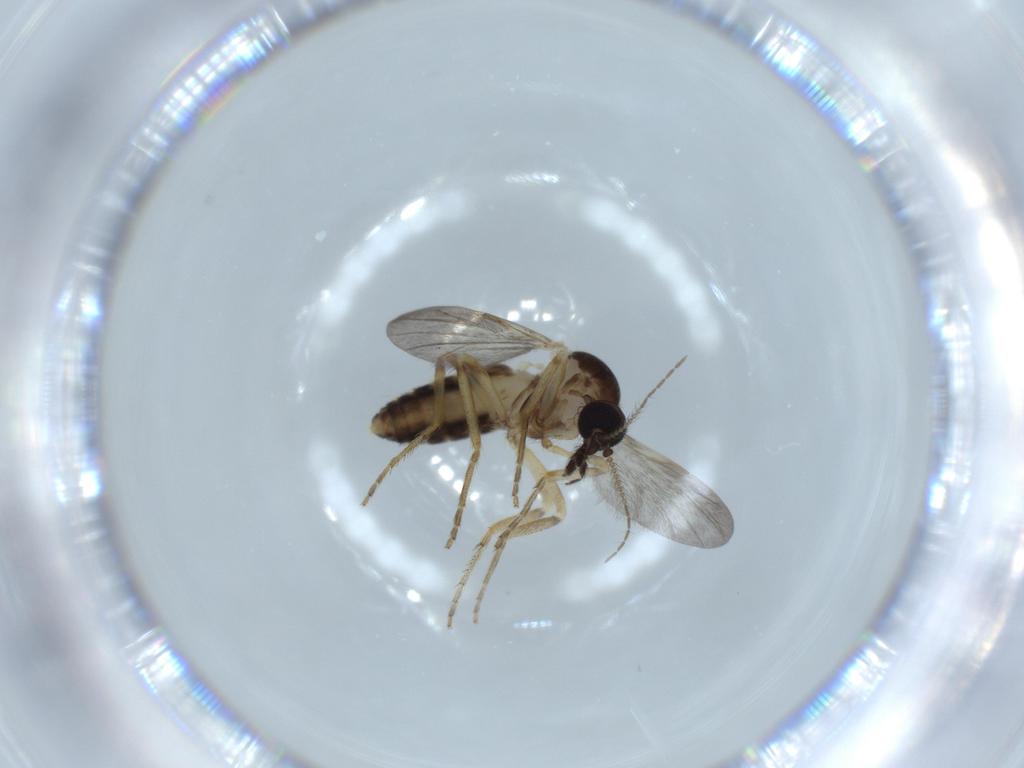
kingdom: Animalia
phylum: Arthropoda
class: Insecta
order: Diptera
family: Ceratopogonidae
